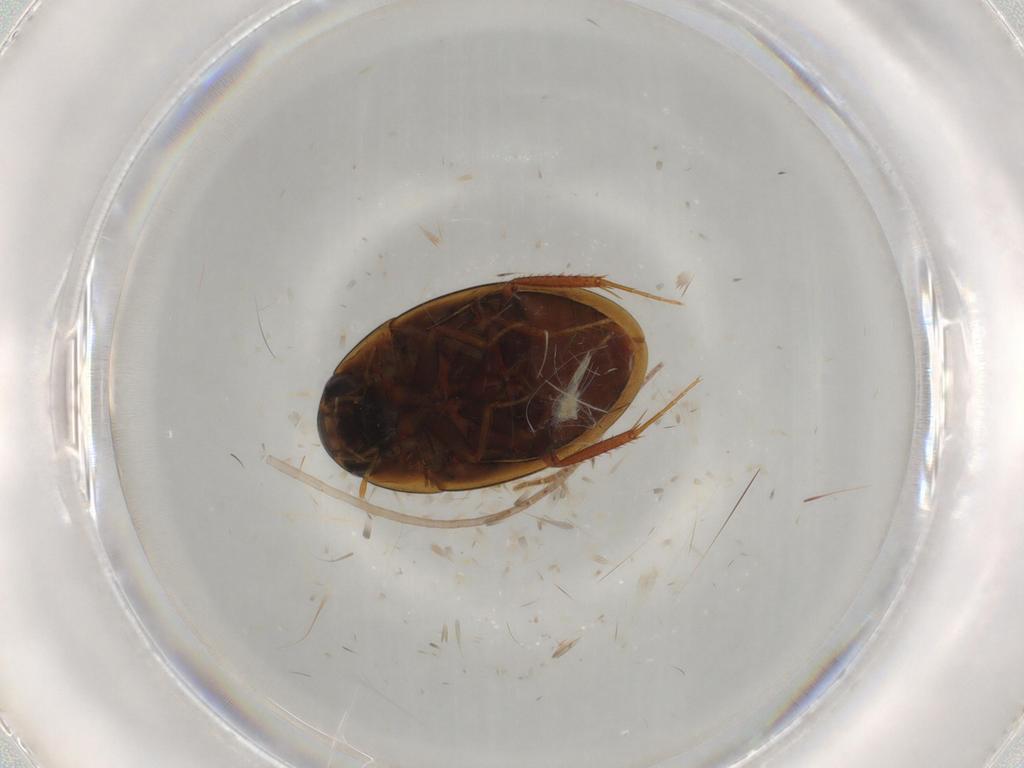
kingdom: Animalia
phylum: Arthropoda
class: Insecta
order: Coleoptera
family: Hydrophilidae
